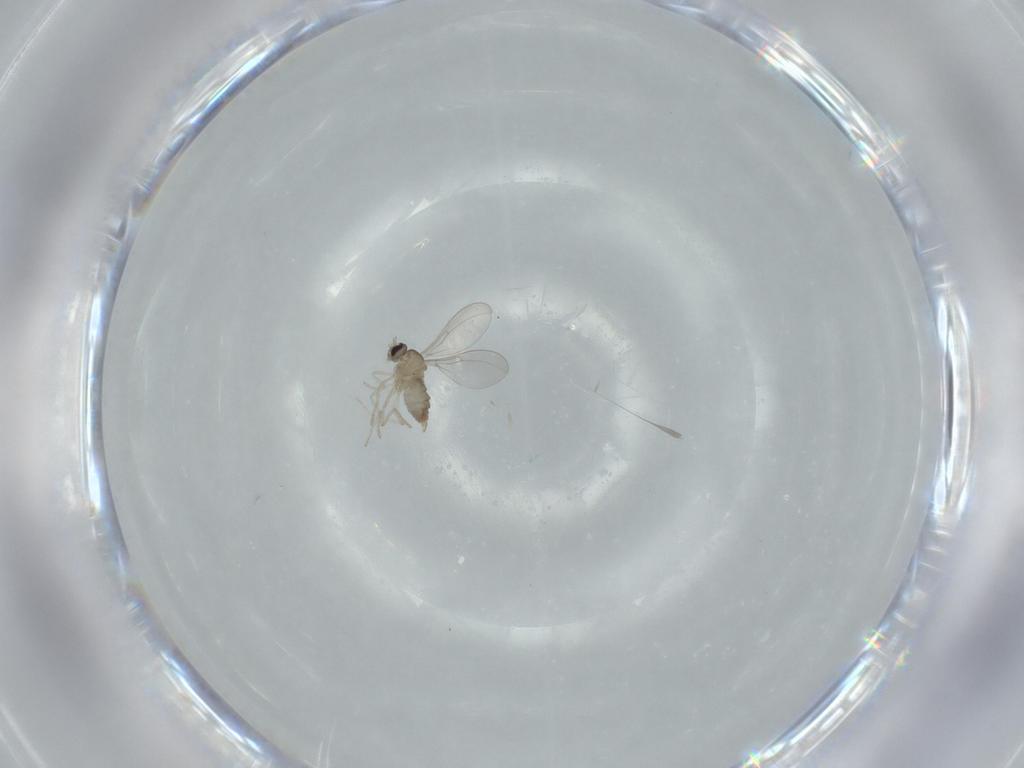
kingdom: Animalia
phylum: Arthropoda
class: Insecta
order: Diptera
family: Cecidomyiidae
